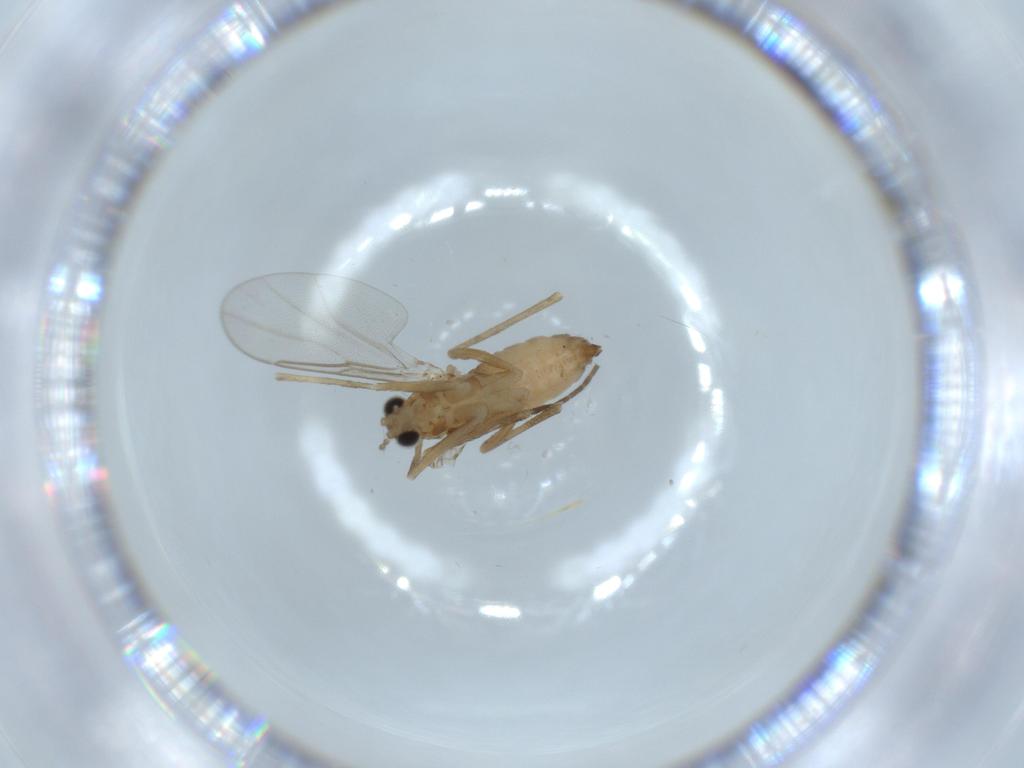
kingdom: Animalia
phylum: Arthropoda
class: Insecta
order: Diptera
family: Cecidomyiidae
